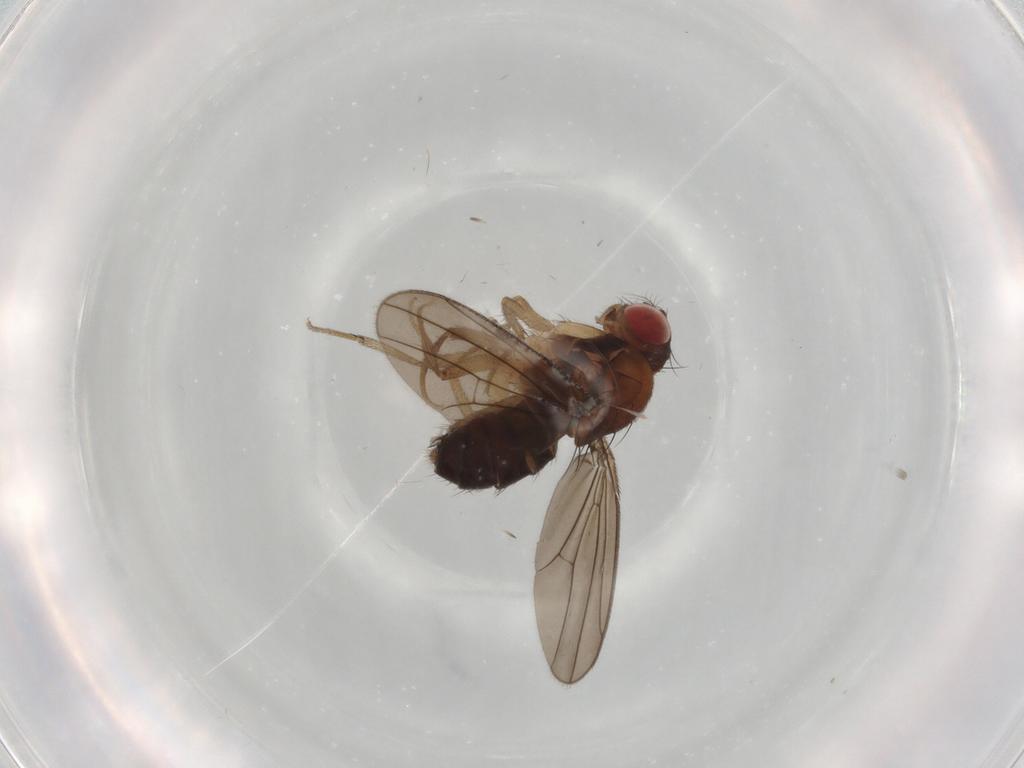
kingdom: Animalia
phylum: Arthropoda
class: Insecta
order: Diptera
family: Drosophilidae
